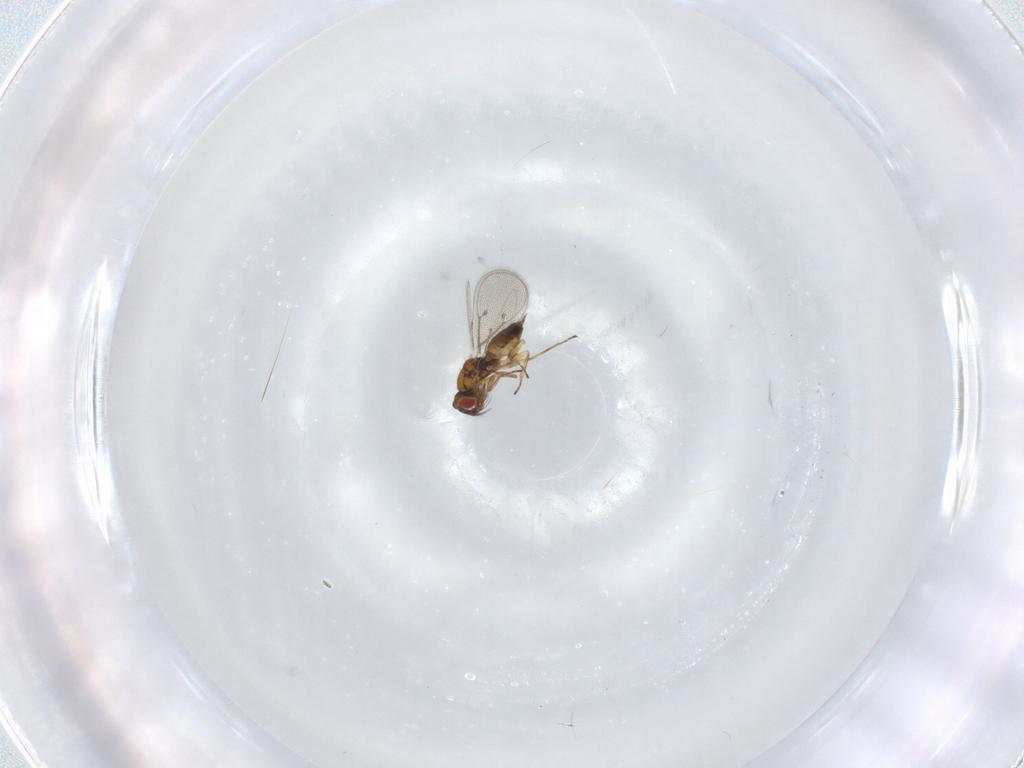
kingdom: Animalia
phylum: Arthropoda
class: Insecta
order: Hymenoptera
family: Eulophidae
